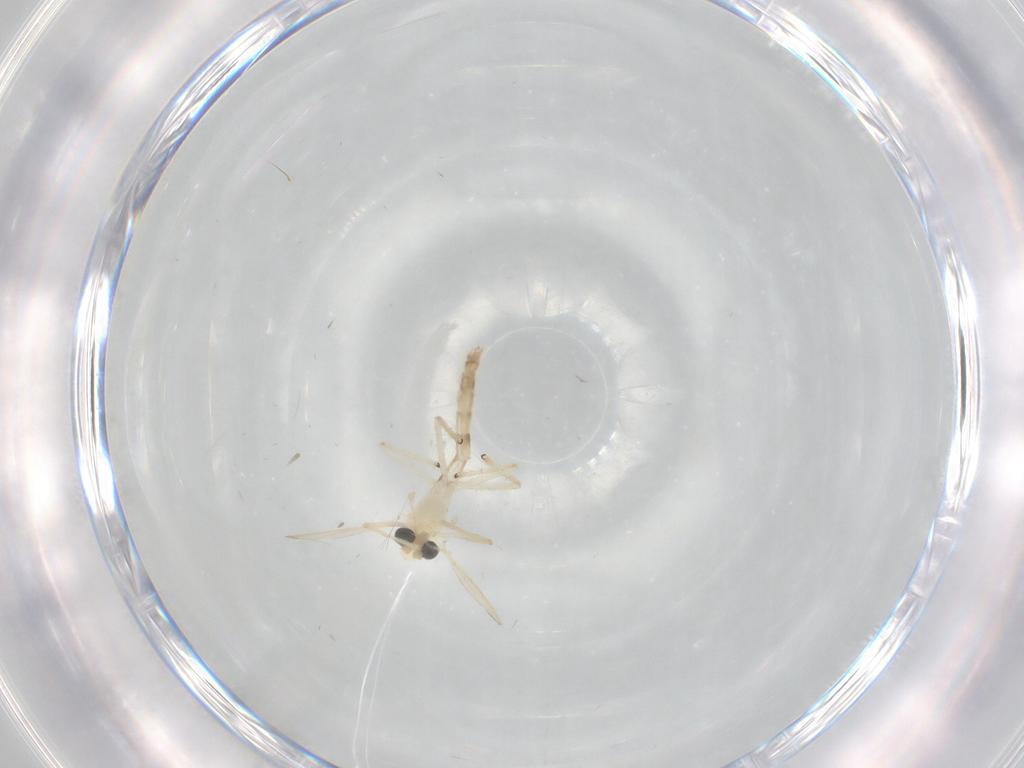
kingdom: Animalia
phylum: Arthropoda
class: Insecta
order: Diptera
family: Chironomidae
